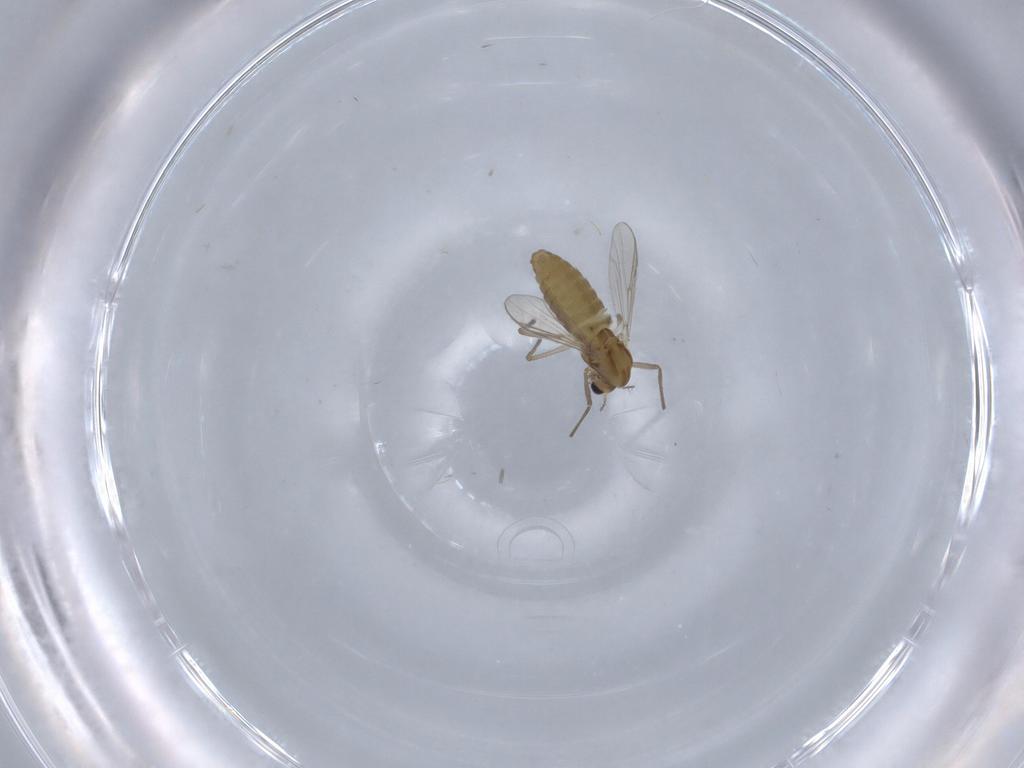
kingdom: Animalia
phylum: Arthropoda
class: Insecta
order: Diptera
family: Chironomidae
